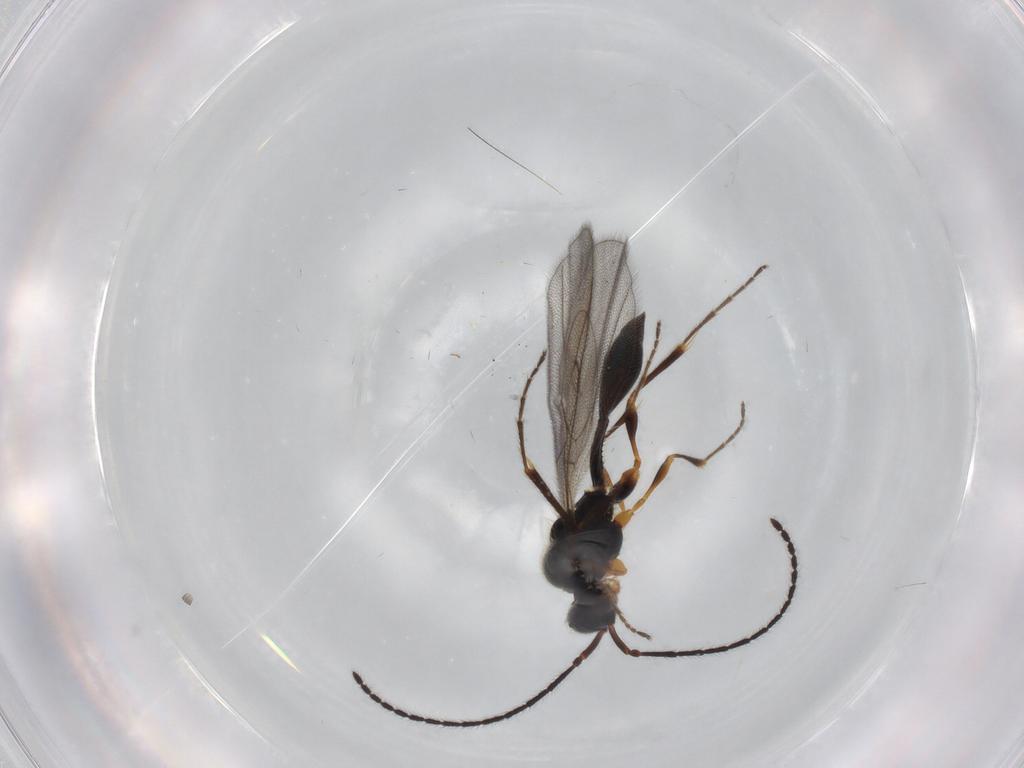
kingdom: Animalia
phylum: Arthropoda
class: Insecta
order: Hymenoptera
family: Diapriidae
